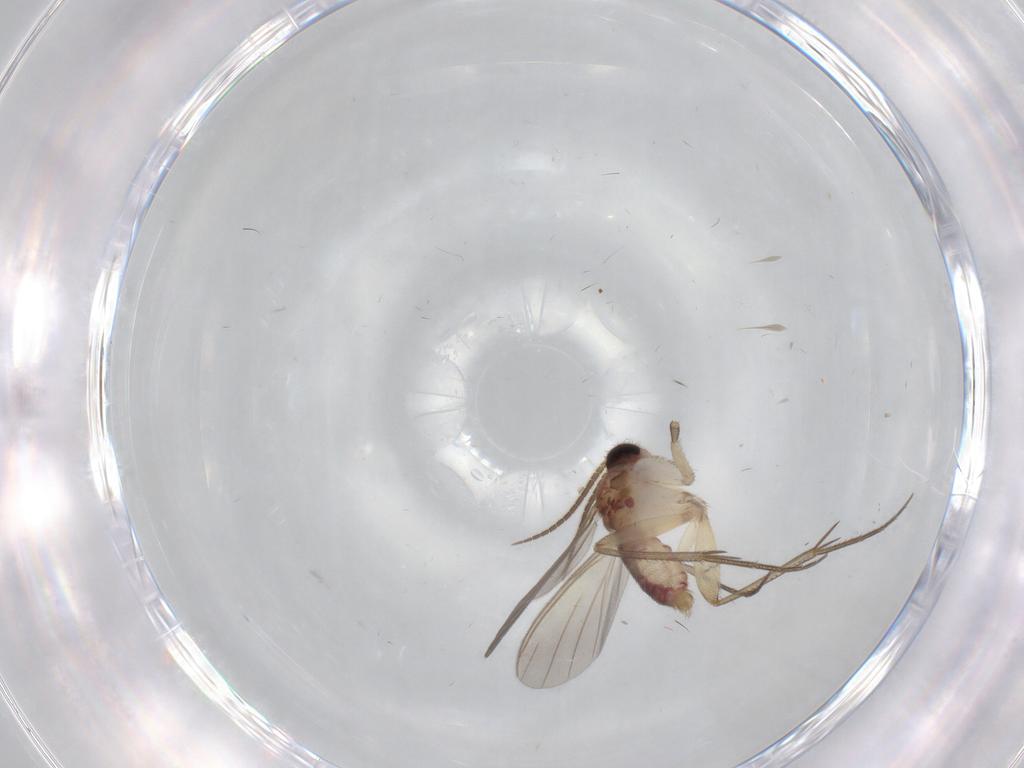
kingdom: Animalia
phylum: Arthropoda
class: Insecta
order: Diptera
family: Mycetophilidae
